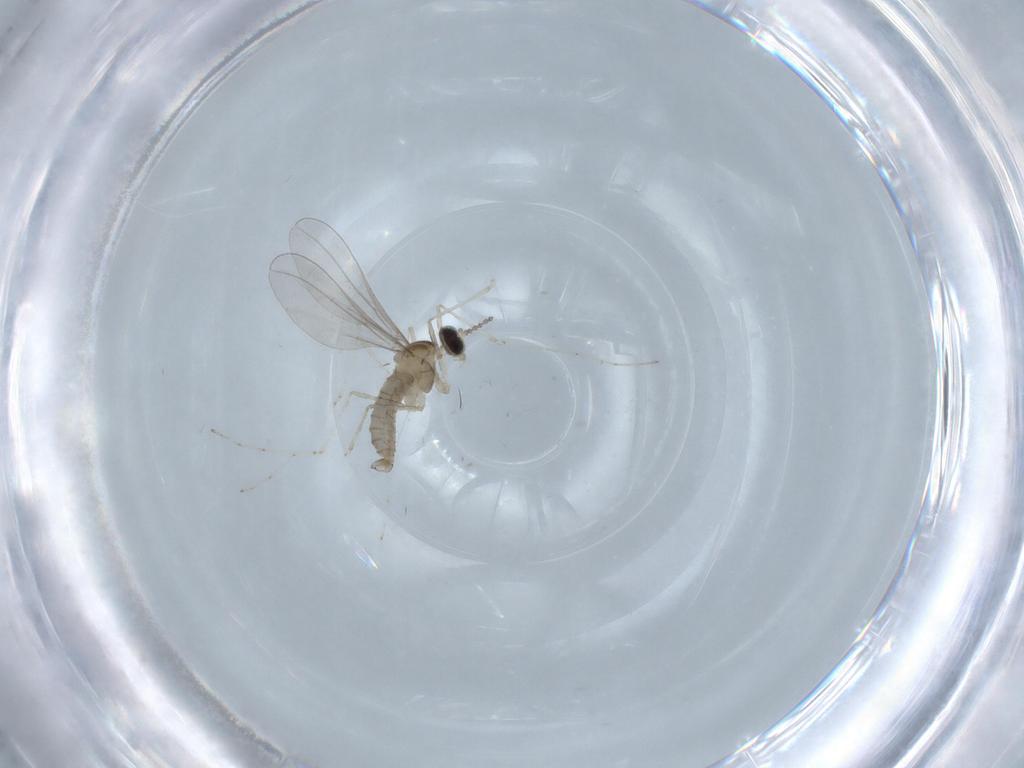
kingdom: Animalia
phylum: Arthropoda
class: Insecta
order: Diptera
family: Cecidomyiidae
